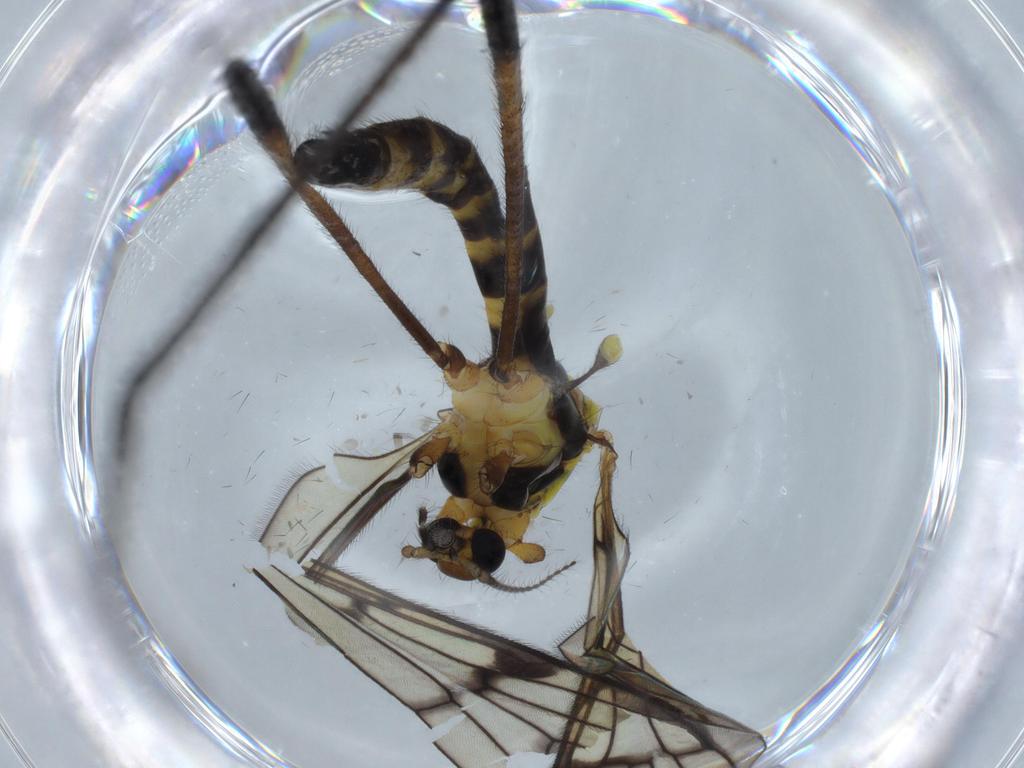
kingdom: Animalia
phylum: Arthropoda
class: Insecta
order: Diptera
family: Limoniidae
